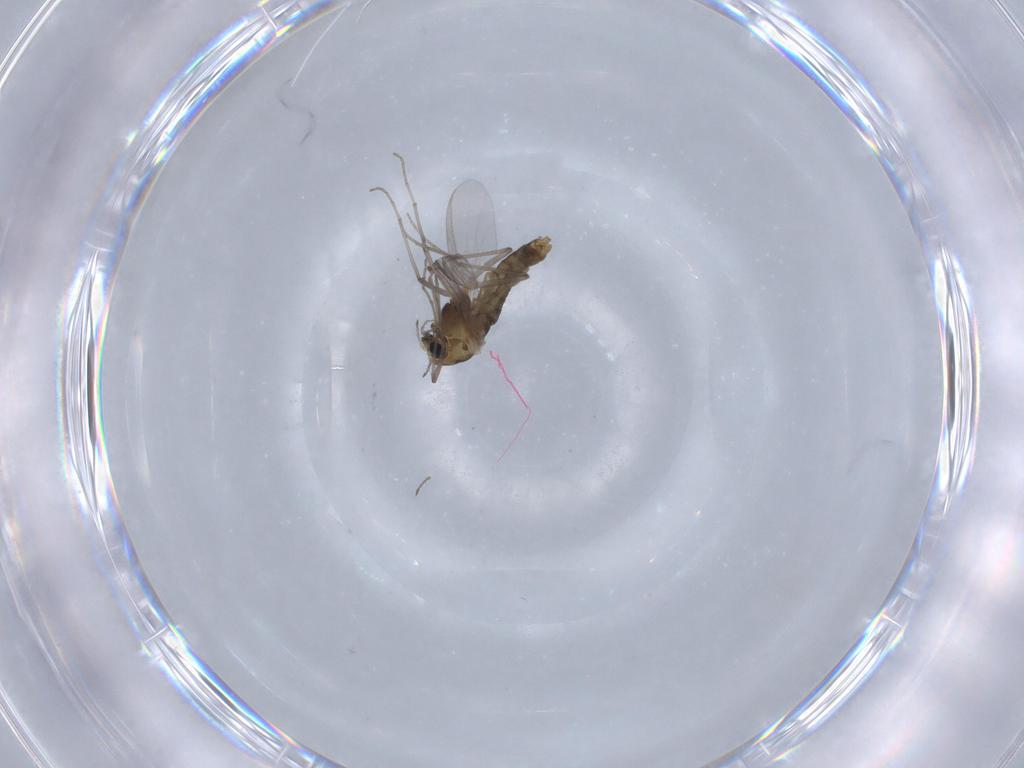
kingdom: Animalia
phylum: Arthropoda
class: Insecta
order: Diptera
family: Chironomidae
